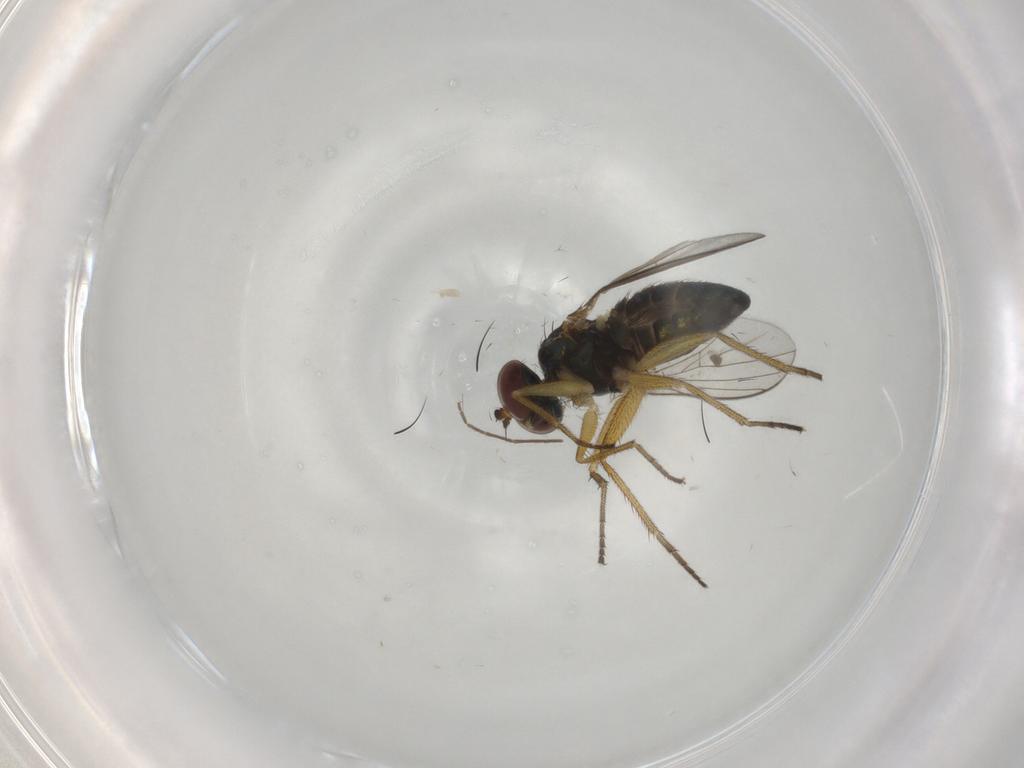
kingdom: Animalia
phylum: Arthropoda
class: Insecta
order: Diptera
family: Dolichopodidae
